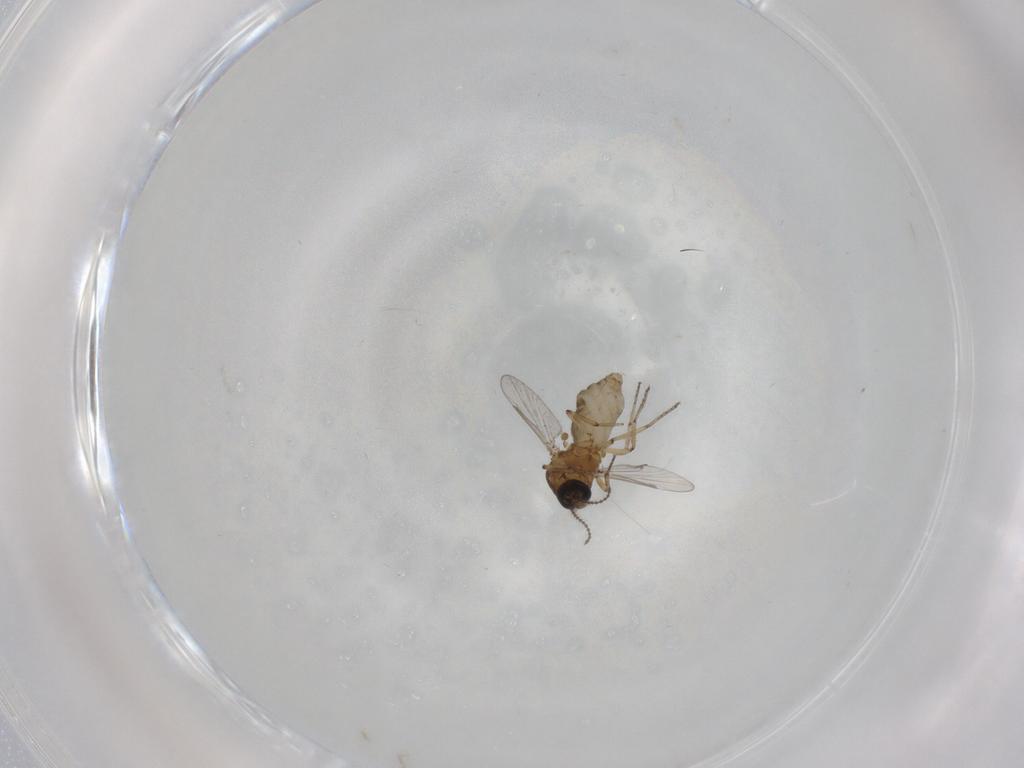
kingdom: Animalia
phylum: Arthropoda
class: Insecta
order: Diptera
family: Ceratopogonidae
